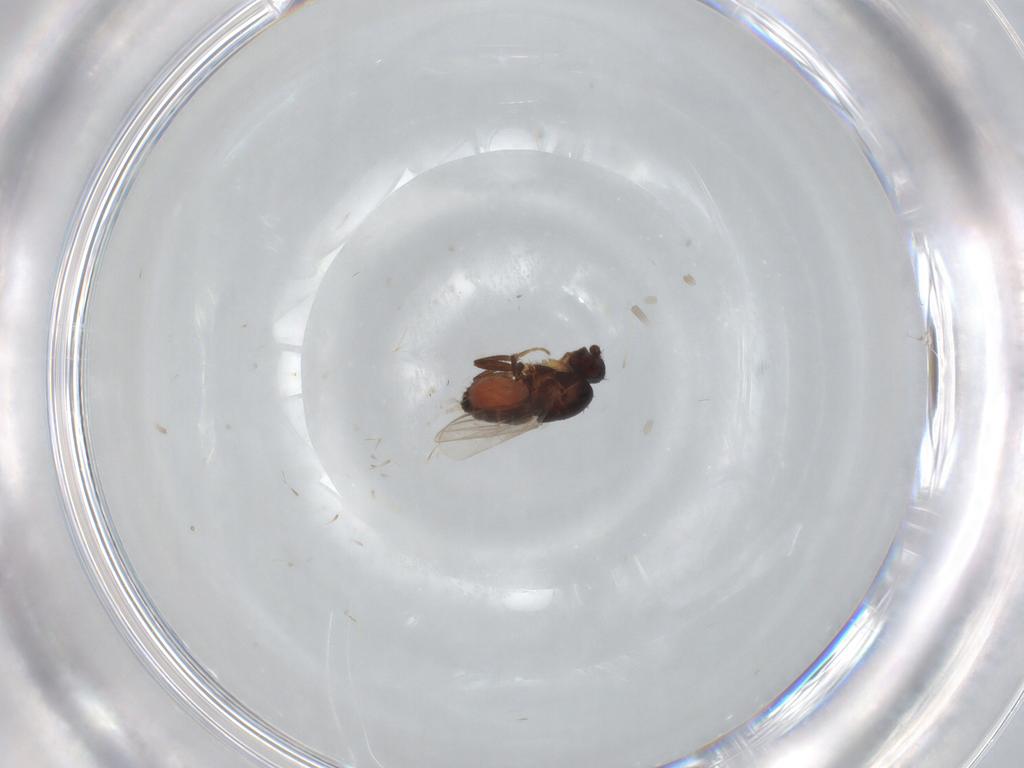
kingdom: Animalia
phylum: Arthropoda
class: Insecta
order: Diptera
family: Sphaeroceridae
